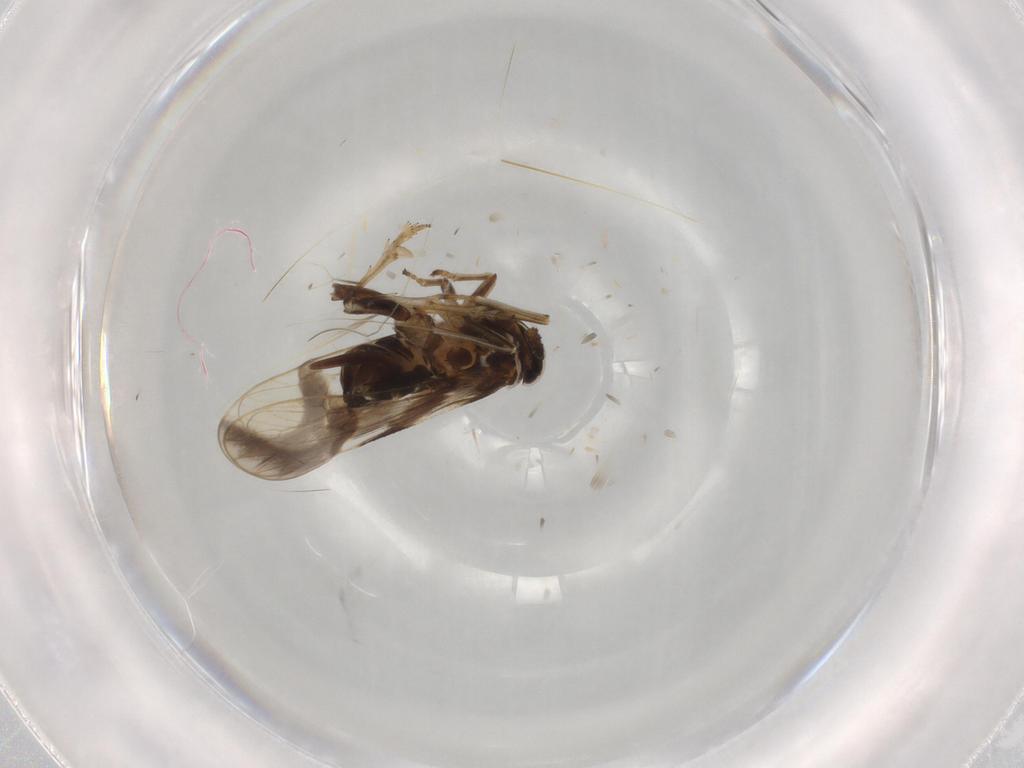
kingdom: Animalia
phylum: Arthropoda
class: Insecta
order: Hemiptera
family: Delphacidae
